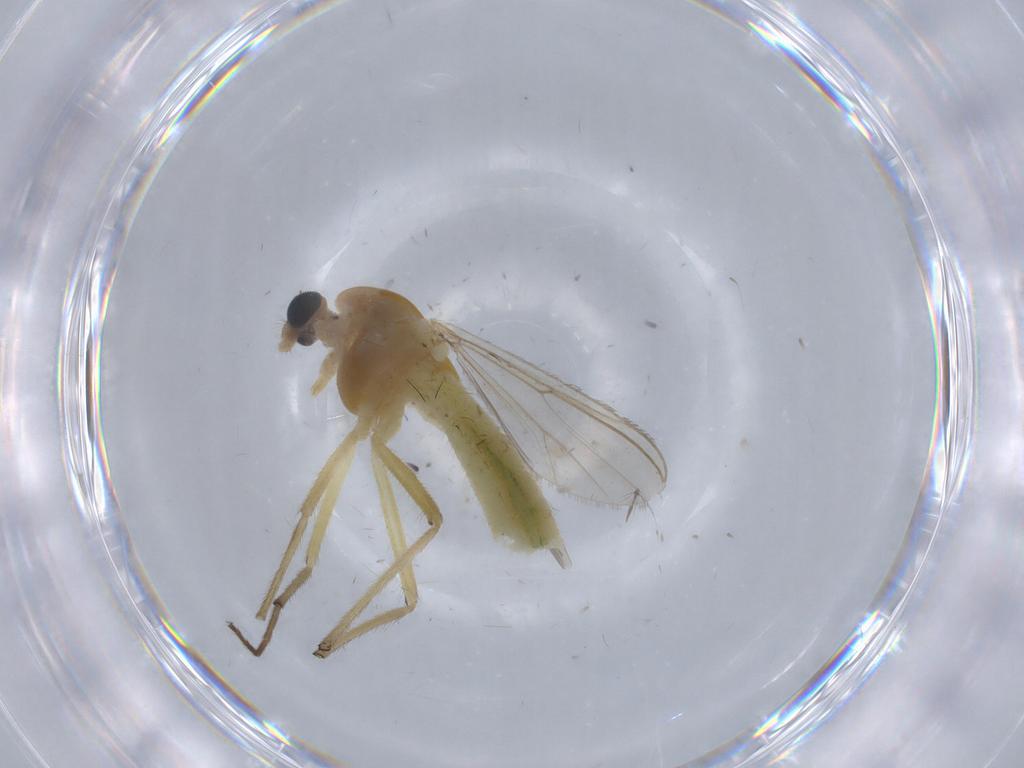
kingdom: Animalia
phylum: Arthropoda
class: Insecta
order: Diptera
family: Chironomidae
